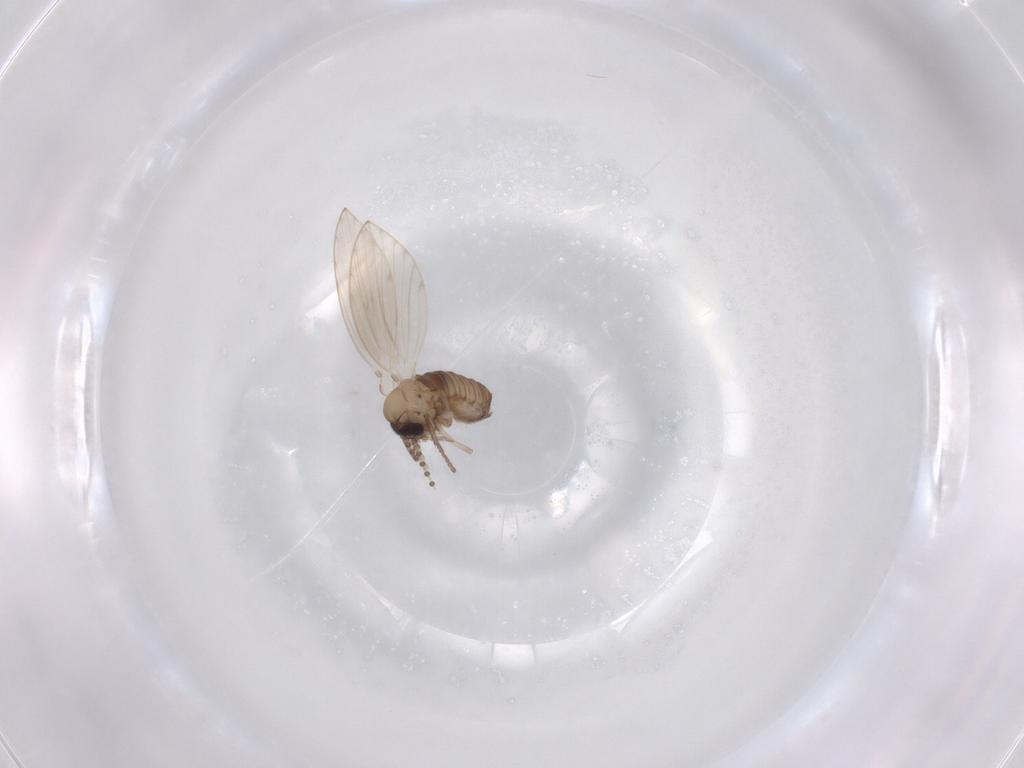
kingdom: Animalia
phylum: Arthropoda
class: Insecta
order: Diptera
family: Psychodidae
